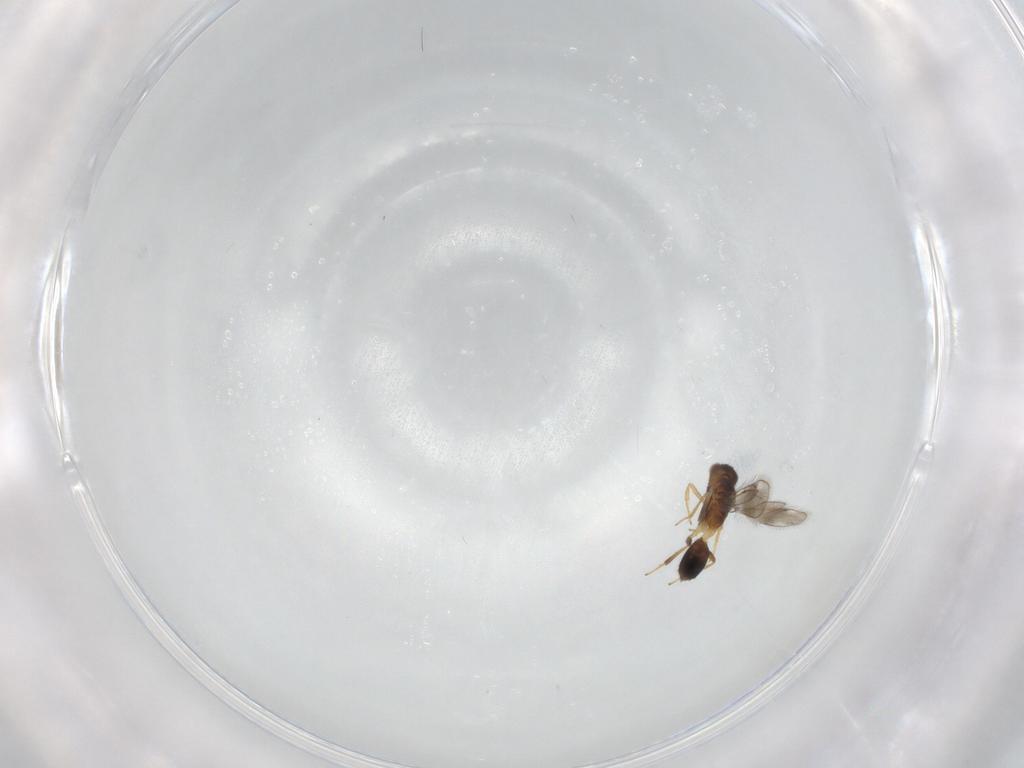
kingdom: Animalia
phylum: Arthropoda
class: Insecta
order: Hymenoptera
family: Pteromalidae
